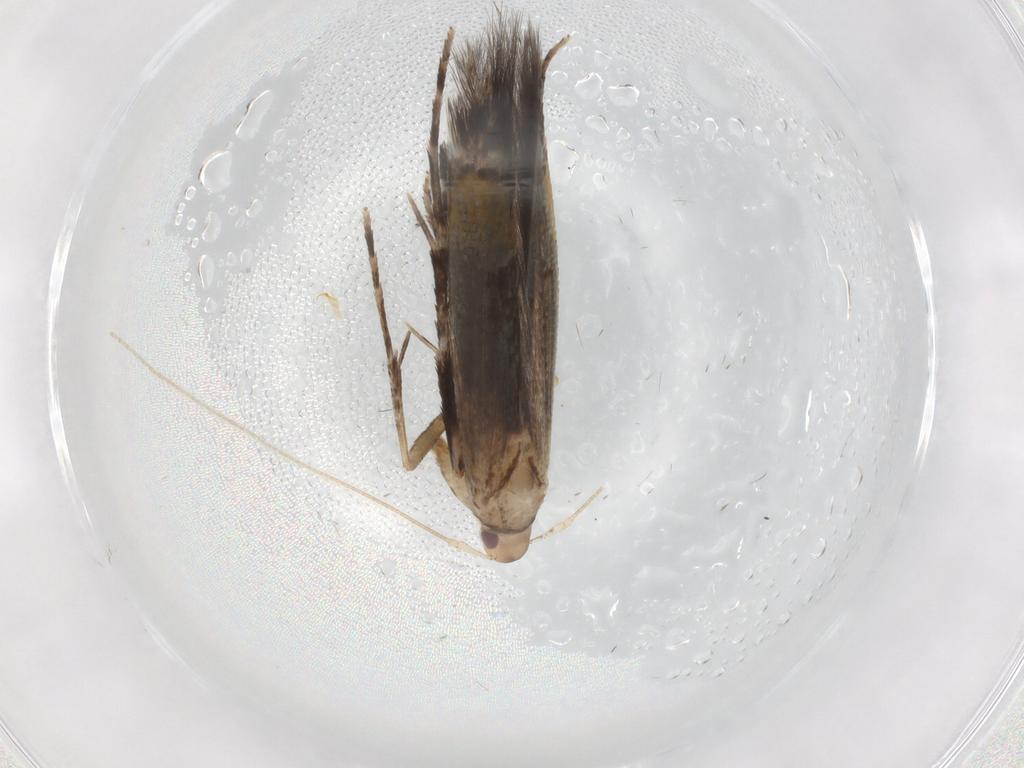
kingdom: Animalia
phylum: Arthropoda
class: Insecta
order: Lepidoptera
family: Cosmopterigidae
